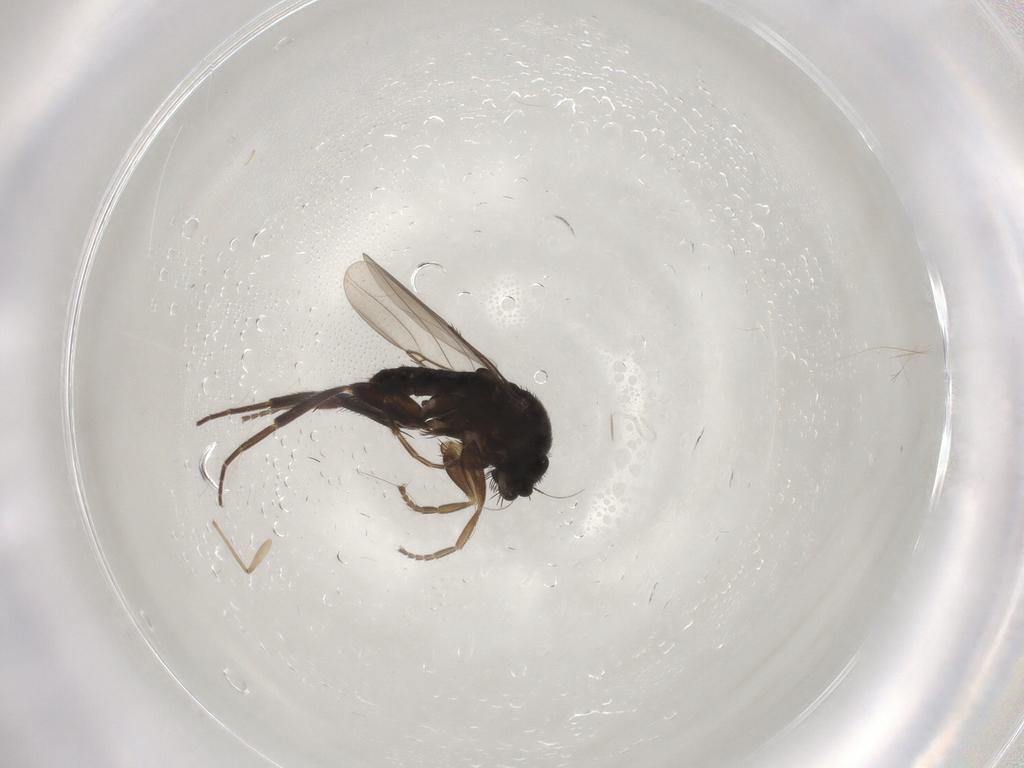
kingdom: Animalia
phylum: Arthropoda
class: Insecta
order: Diptera
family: Phoridae
